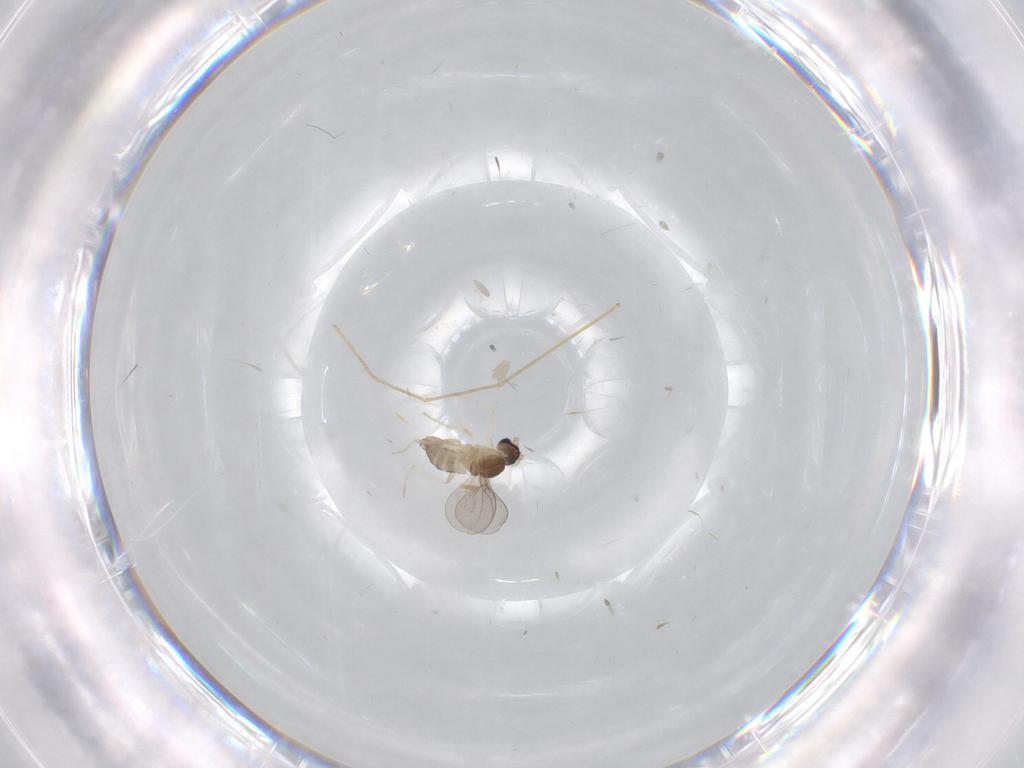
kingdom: Animalia
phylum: Arthropoda
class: Insecta
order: Diptera
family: Cecidomyiidae
